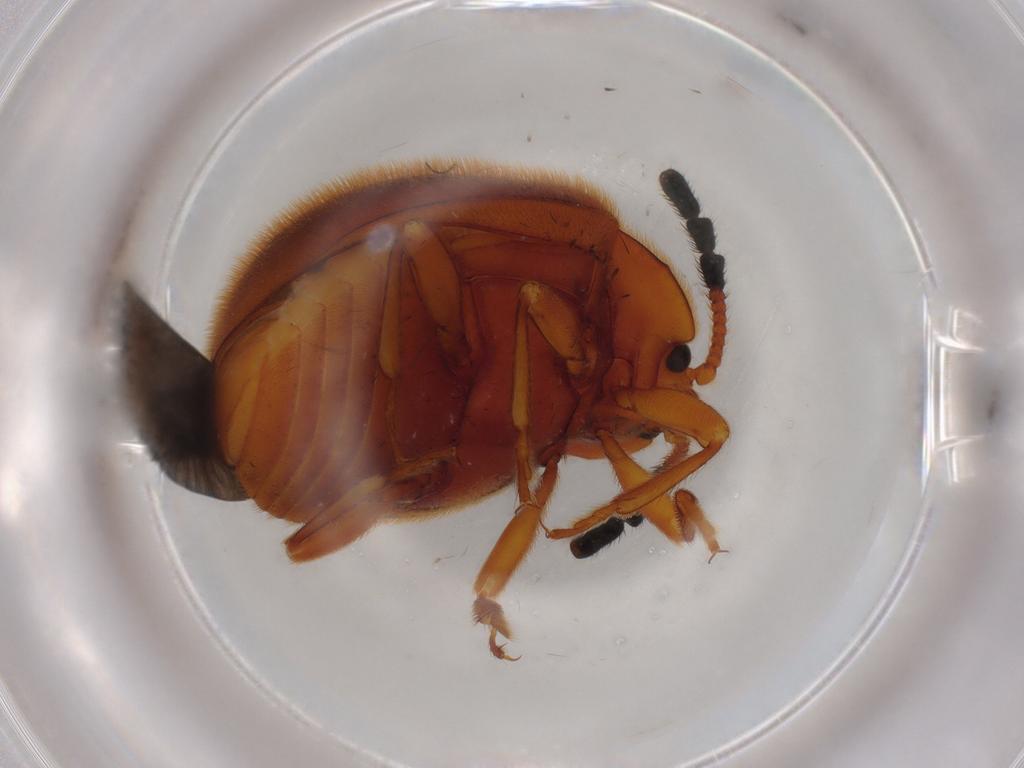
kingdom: Animalia
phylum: Arthropoda
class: Insecta
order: Coleoptera
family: Endomychidae
